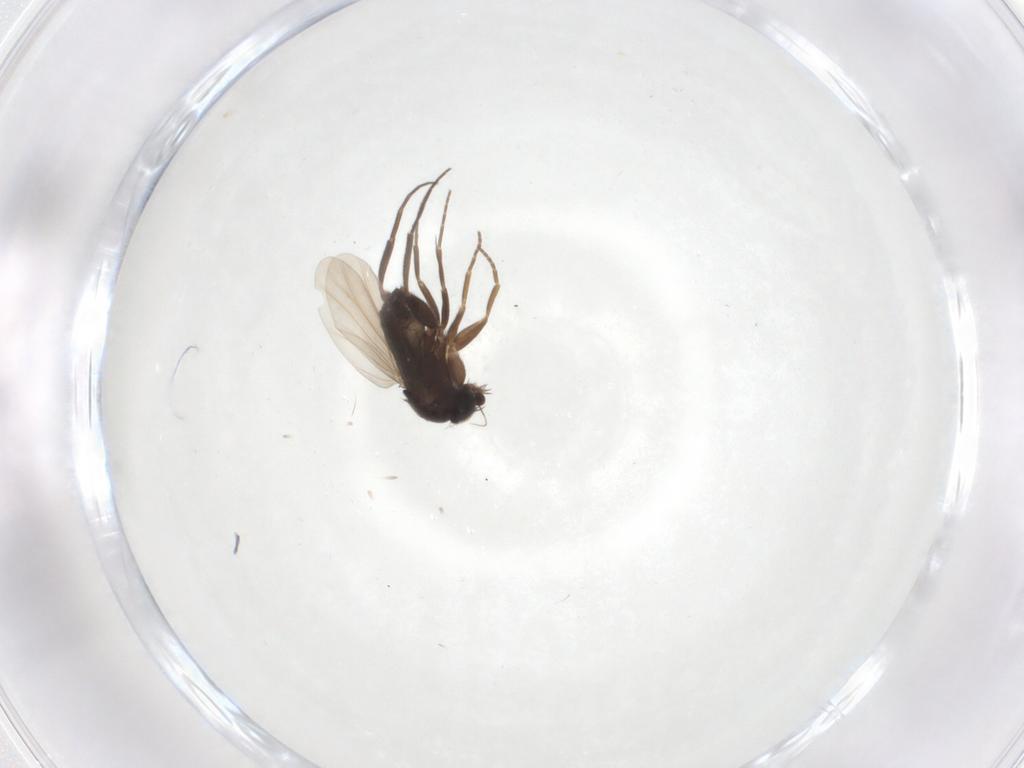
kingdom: Animalia
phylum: Arthropoda
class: Insecta
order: Diptera
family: Phoridae
